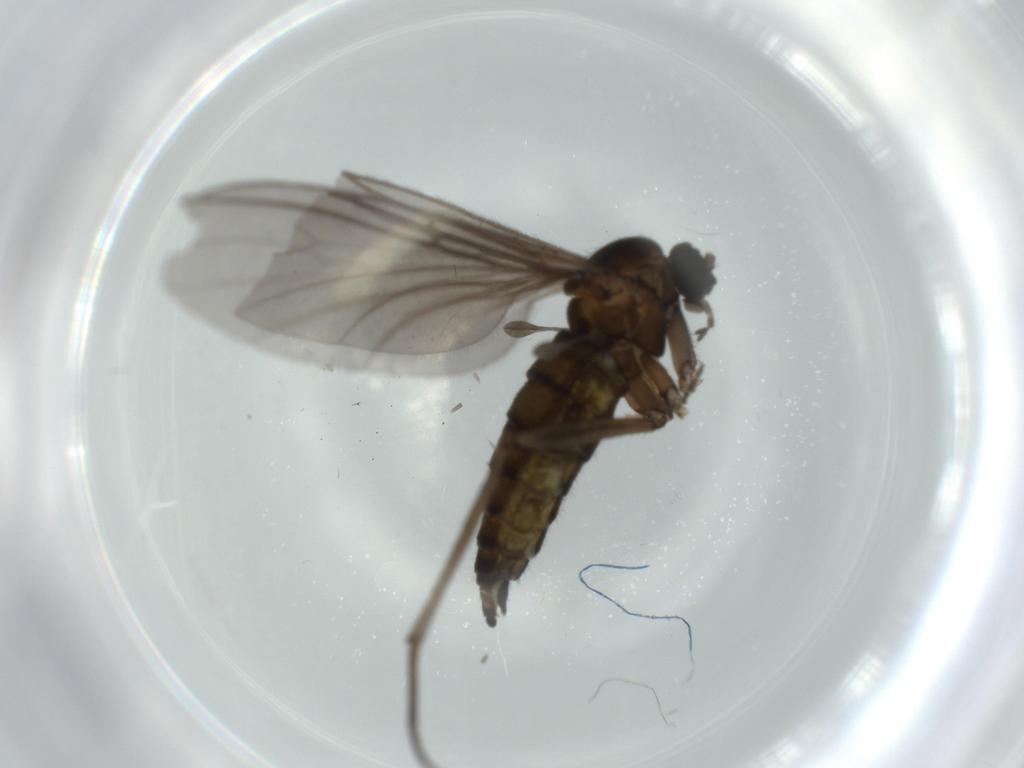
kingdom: Animalia
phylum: Arthropoda
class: Insecta
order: Diptera
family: Sciaridae
